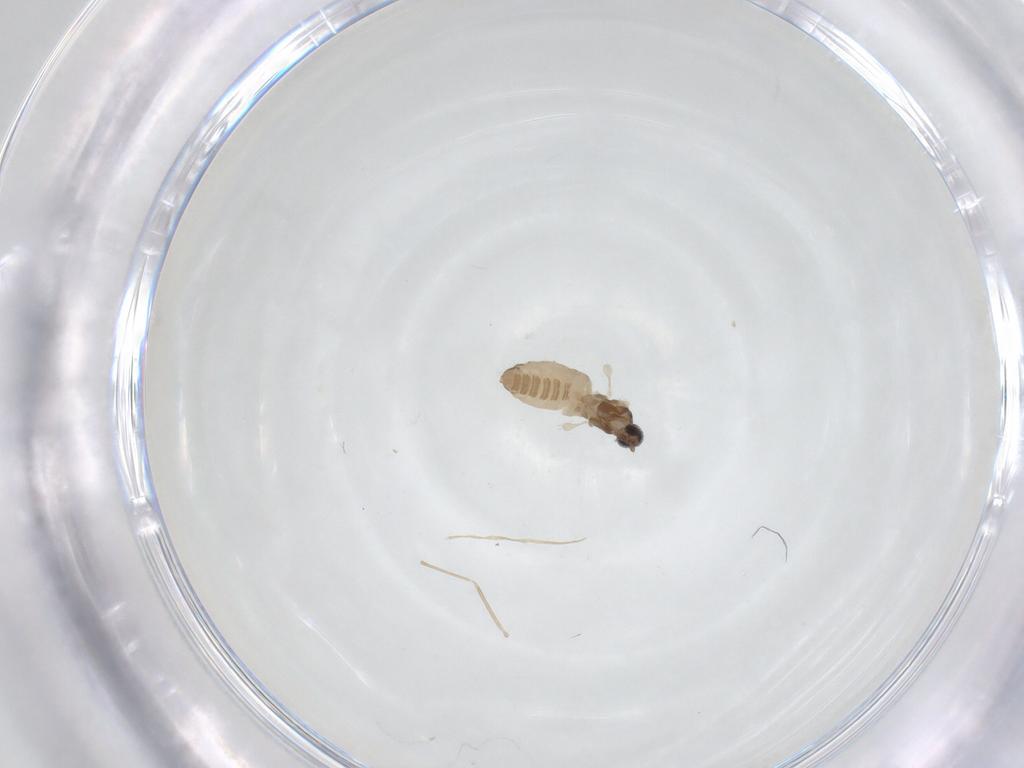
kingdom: Animalia
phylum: Arthropoda
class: Insecta
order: Diptera
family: Cecidomyiidae
